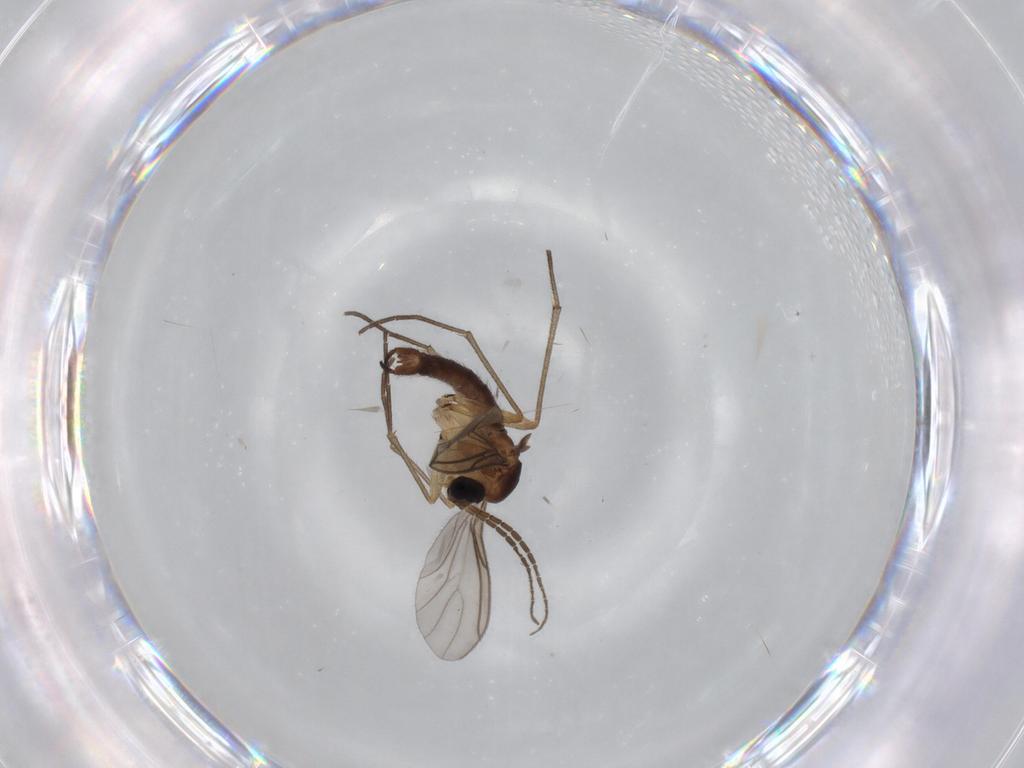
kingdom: Animalia
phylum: Arthropoda
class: Insecta
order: Diptera
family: Sciaridae
